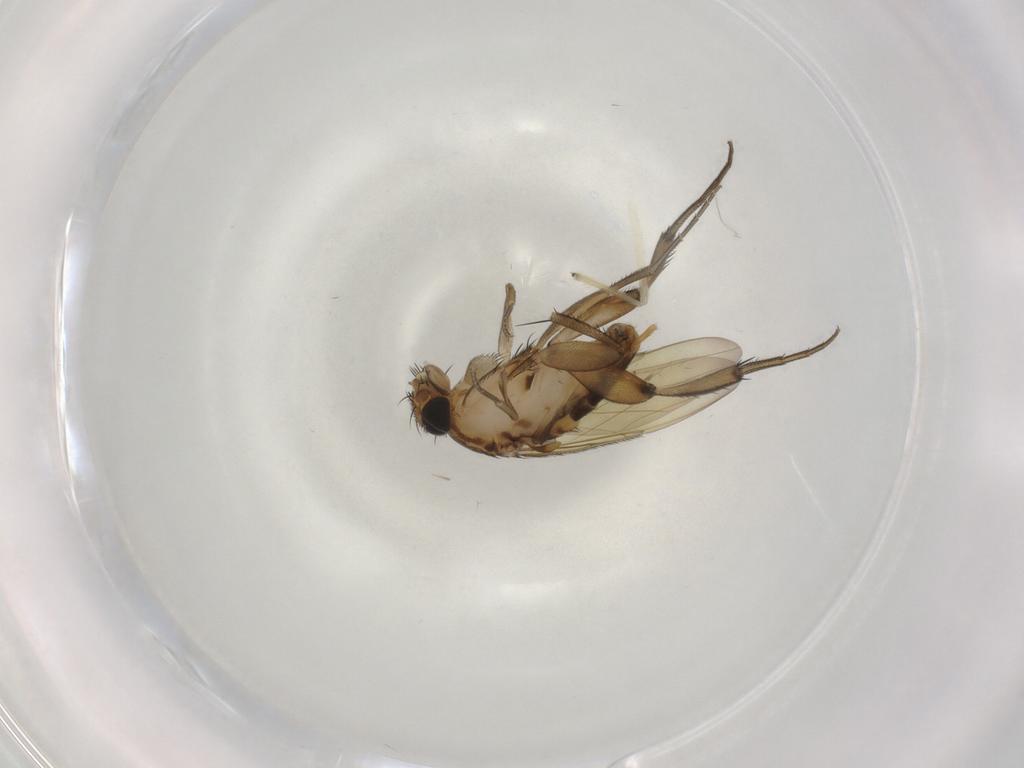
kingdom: Animalia
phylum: Arthropoda
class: Insecta
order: Diptera
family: Chironomidae
